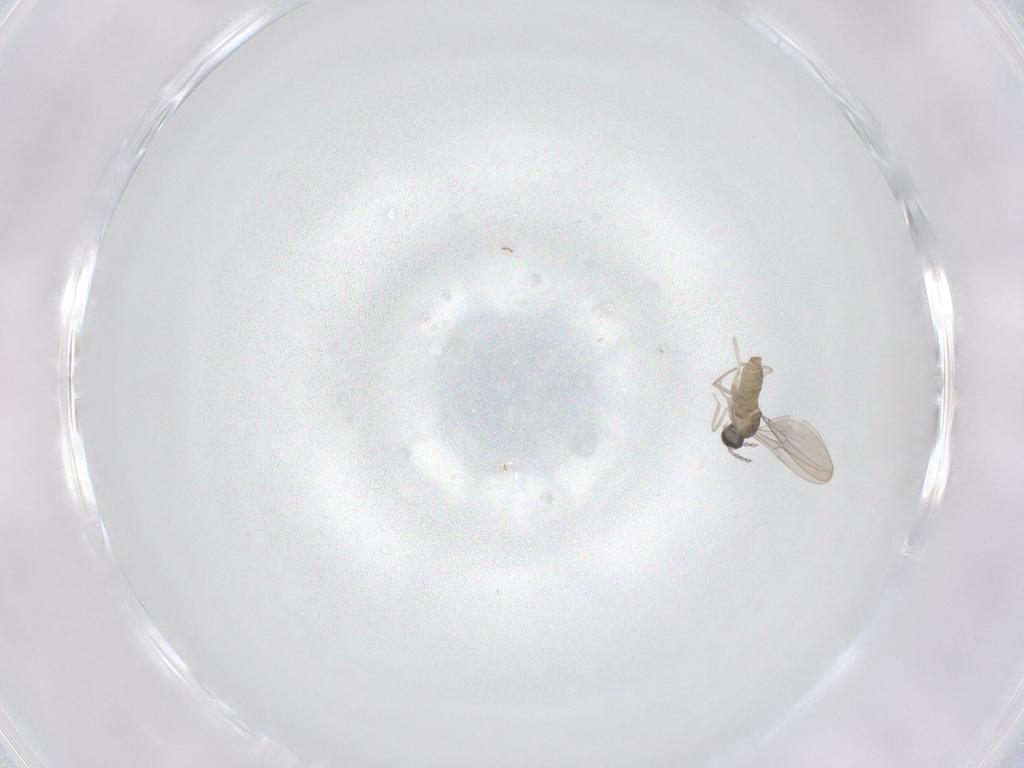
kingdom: Animalia
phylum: Arthropoda
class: Insecta
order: Diptera
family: Cecidomyiidae
